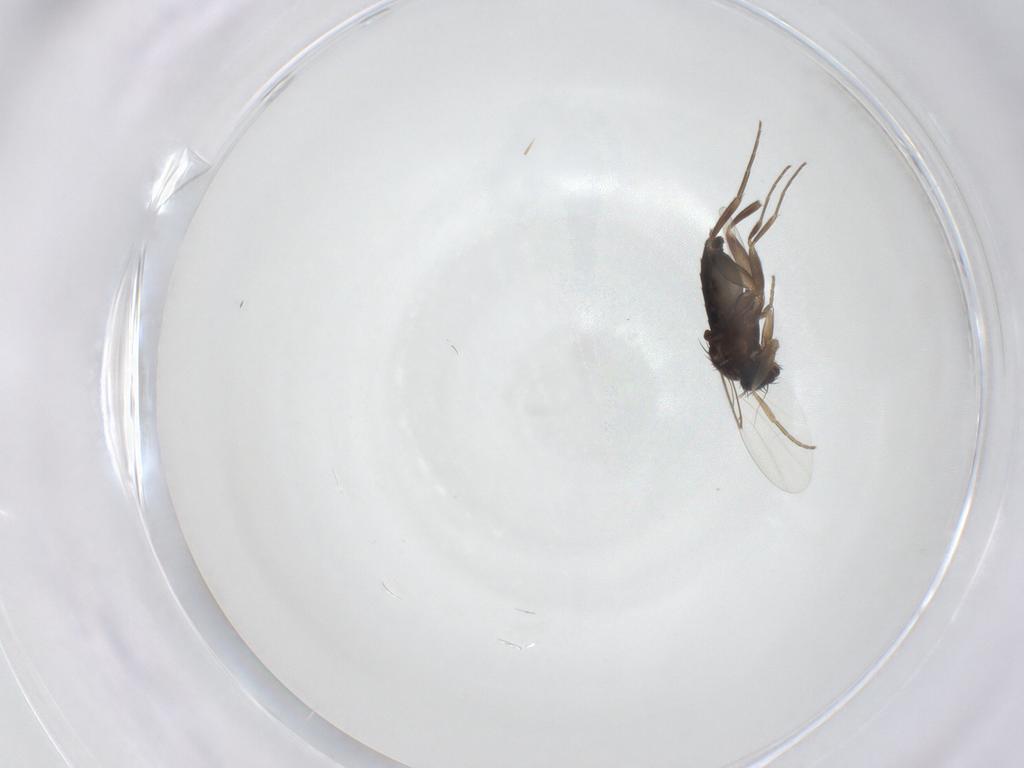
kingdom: Animalia
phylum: Arthropoda
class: Insecta
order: Diptera
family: Phoridae
